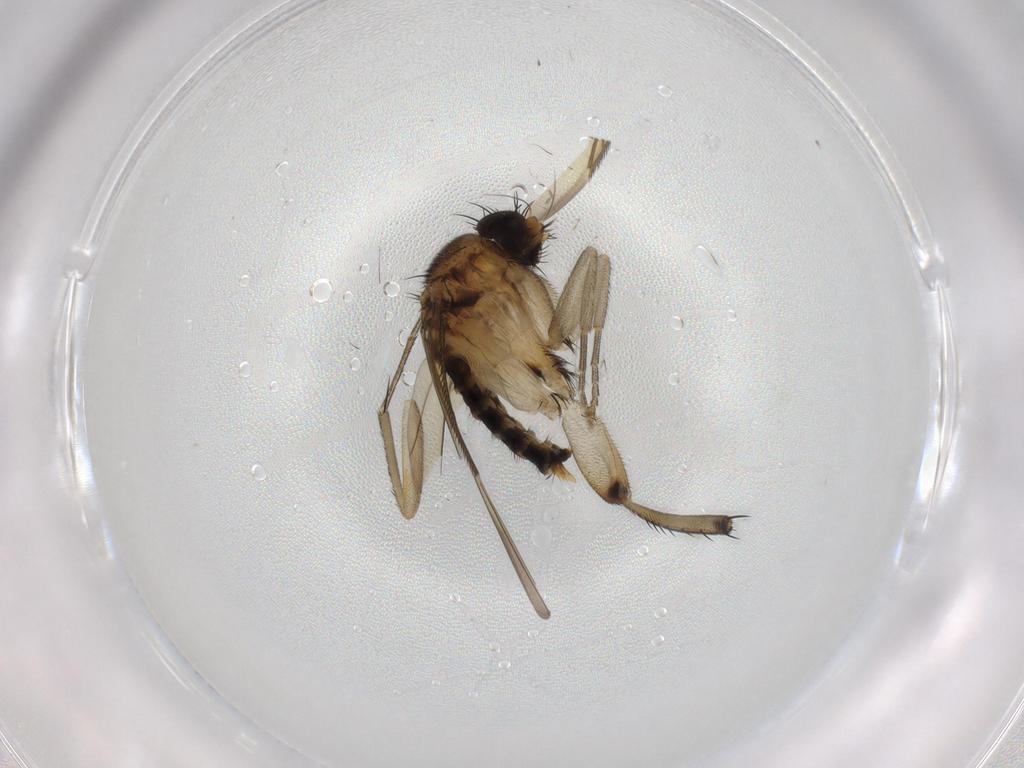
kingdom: Animalia
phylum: Arthropoda
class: Insecta
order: Diptera
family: Phoridae
